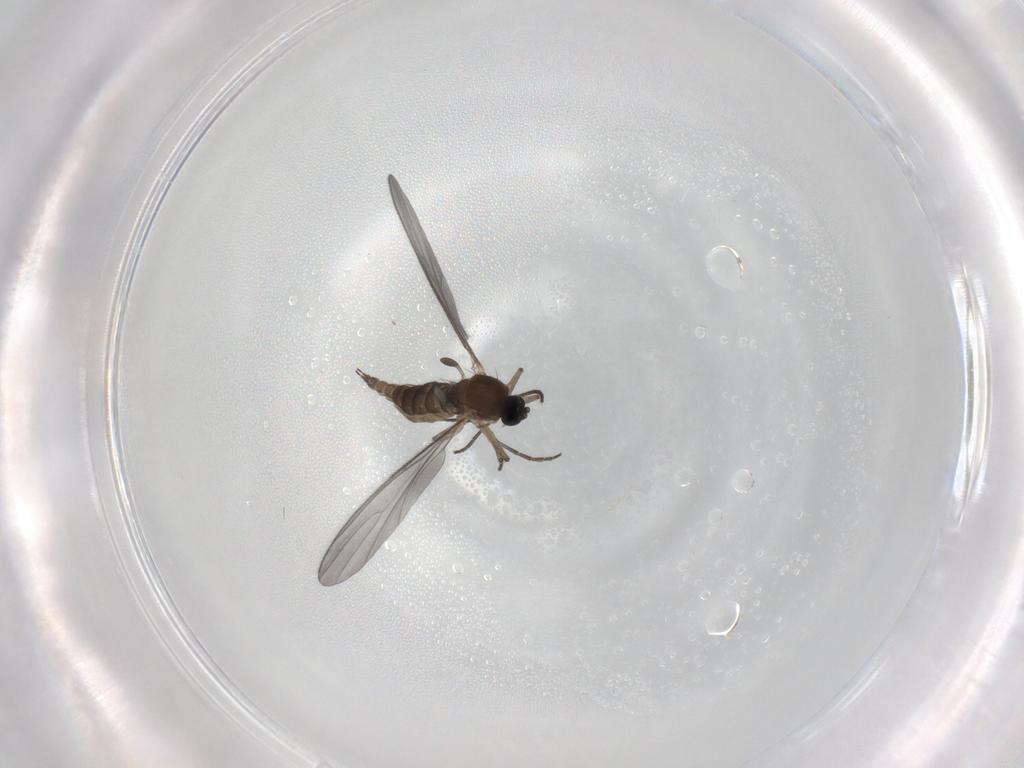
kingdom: Animalia
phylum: Arthropoda
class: Insecta
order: Diptera
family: Sciaridae
